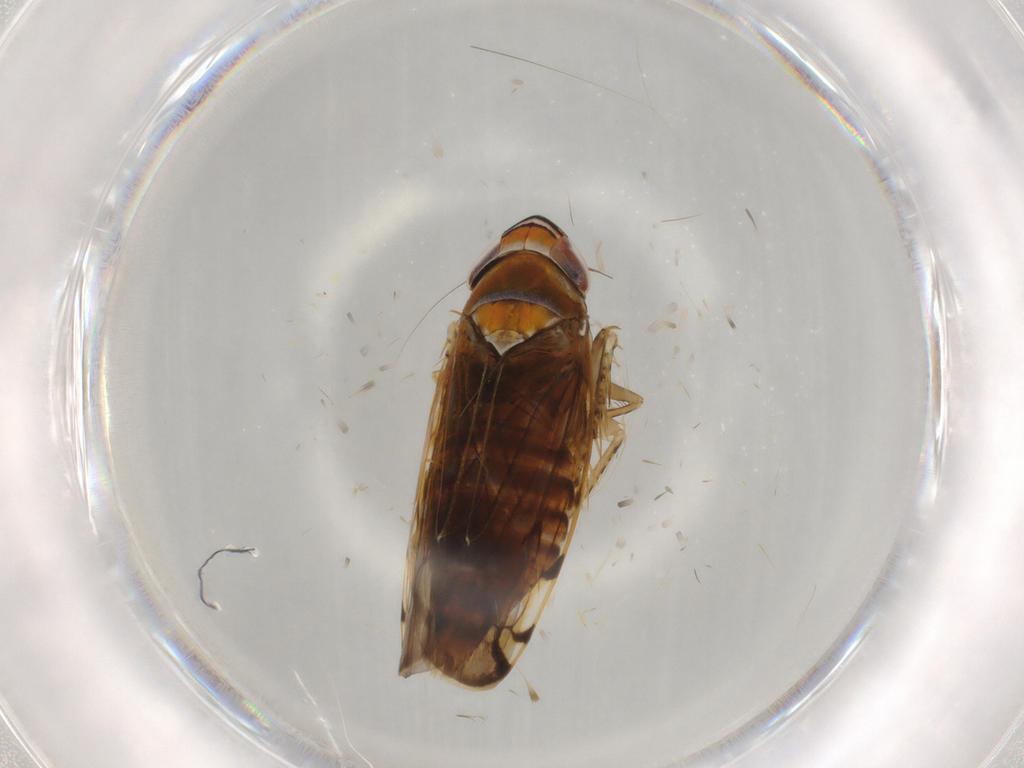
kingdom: Animalia
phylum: Arthropoda
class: Insecta
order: Hemiptera
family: Cicadellidae
